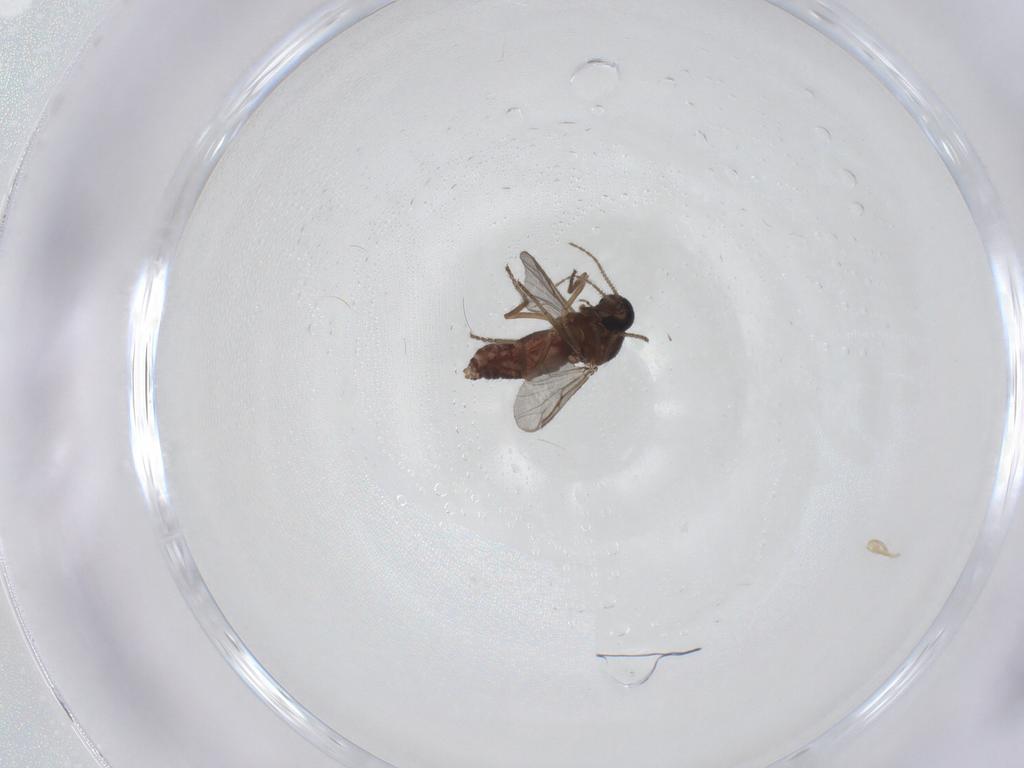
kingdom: Animalia
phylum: Arthropoda
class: Insecta
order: Diptera
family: Ceratopogonidae
